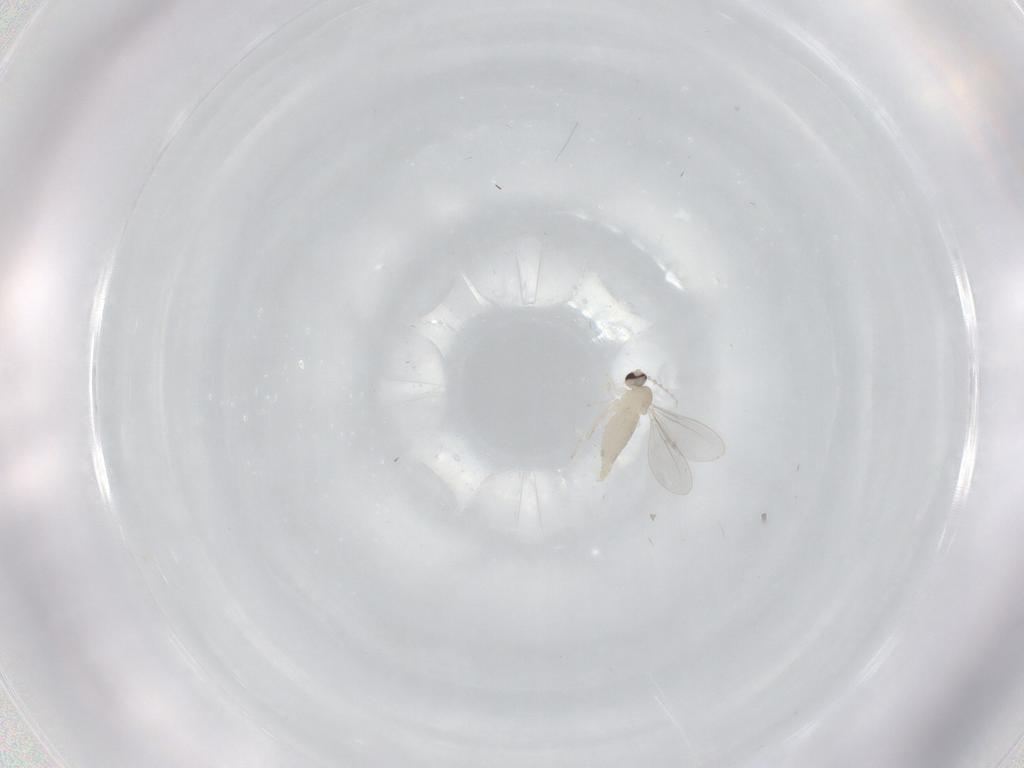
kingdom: Animalia
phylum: Arthropoda
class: Insecta
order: Diptera
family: Cecidomyiidae
